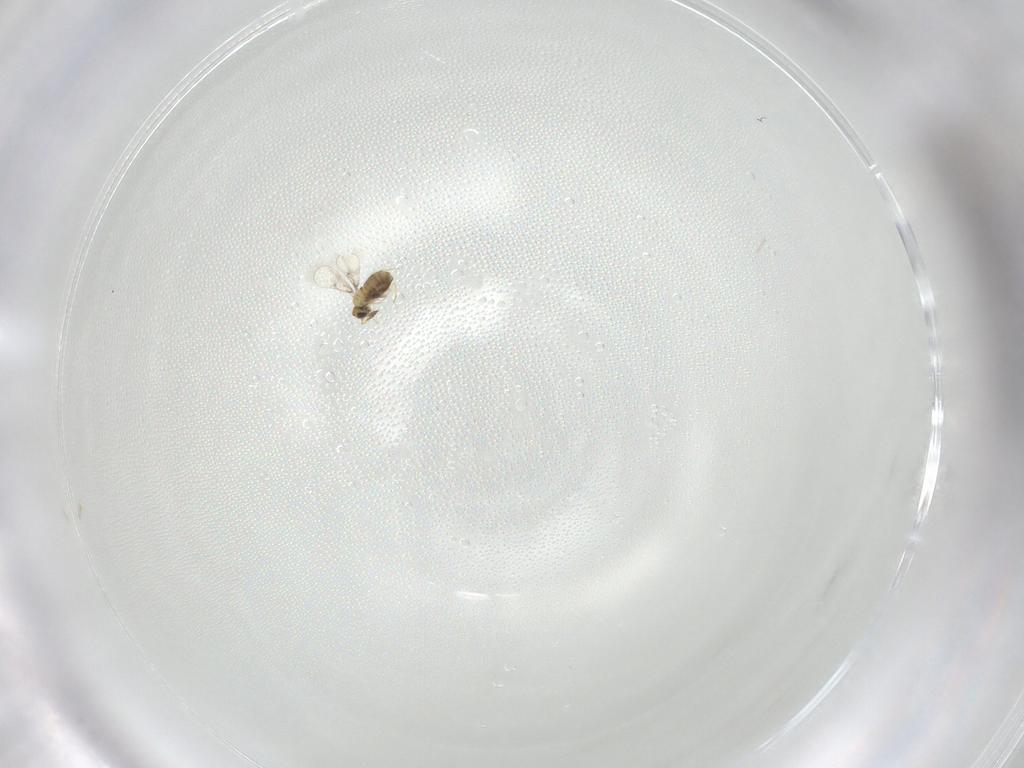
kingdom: Animalia
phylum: Arthropoda
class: Insecta
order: Hymenoptera
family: Trichogrammatidae
